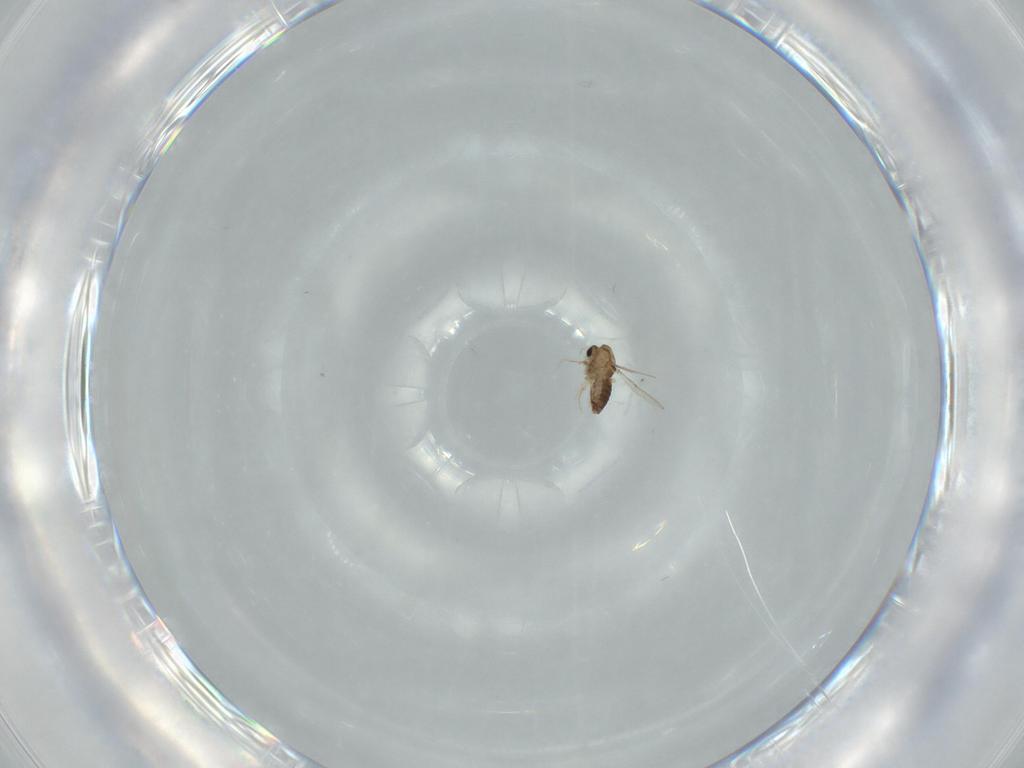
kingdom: Animalia
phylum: Arthropoda
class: Insecta
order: Diptera
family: Chironomidae
